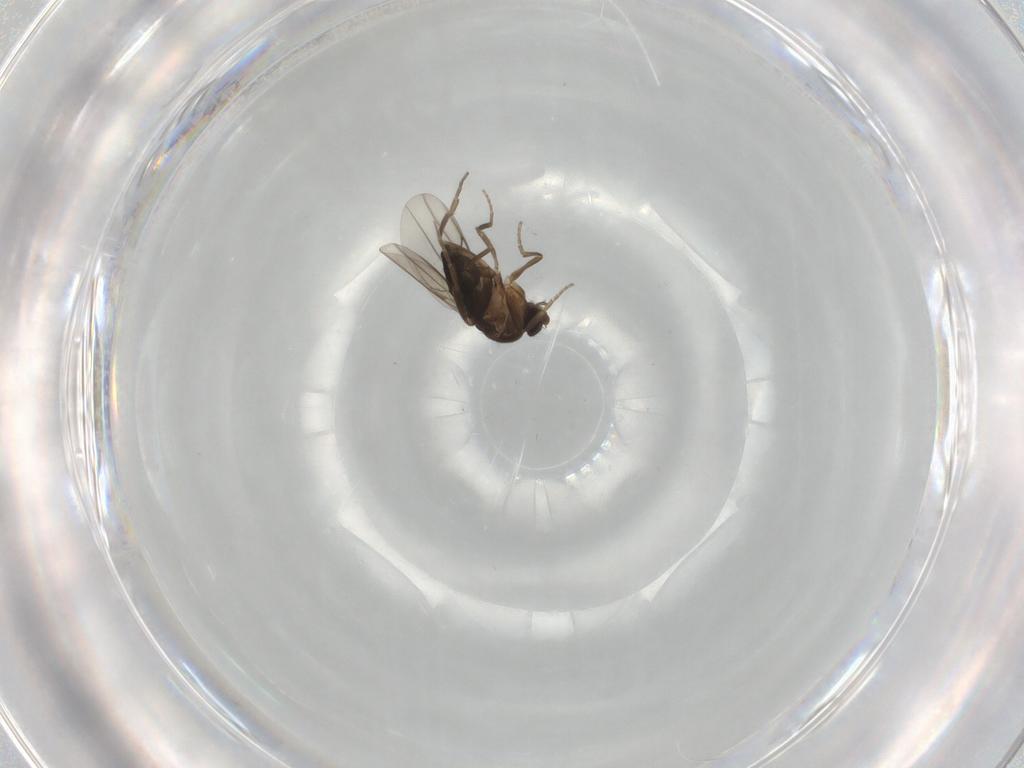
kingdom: Animalia
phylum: Arthropoda
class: Insecta
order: Diptera
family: Phoridae
